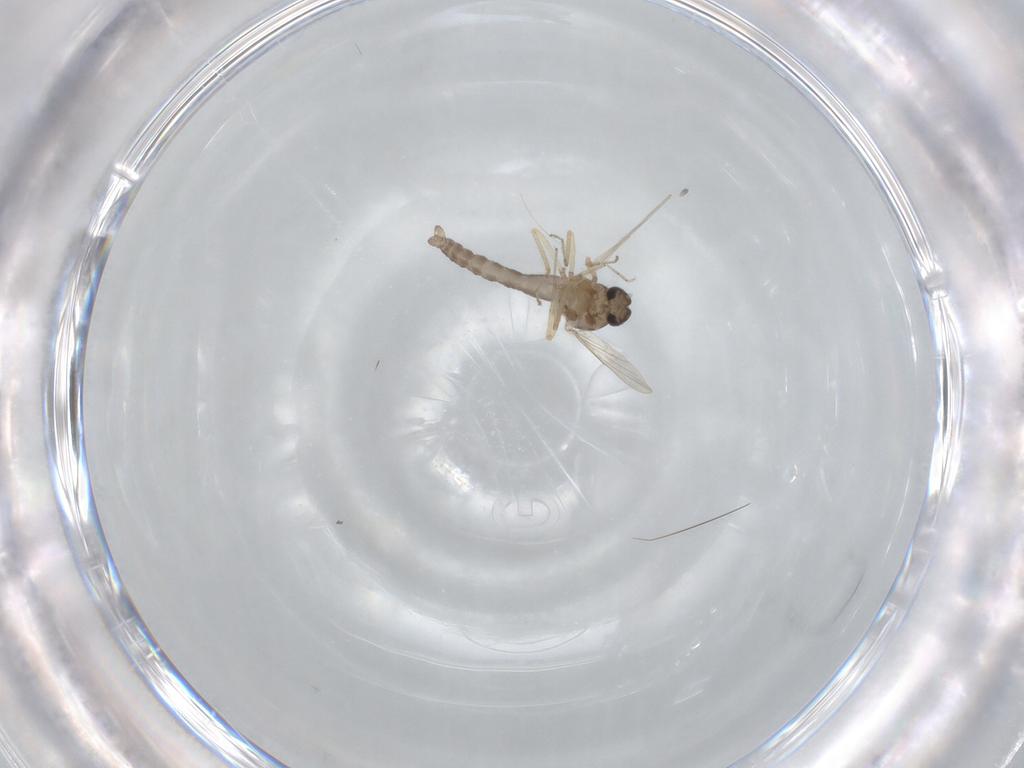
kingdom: Animalia
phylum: Arthropoda
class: Insecta
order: Diptera
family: Ceratopogonidae
